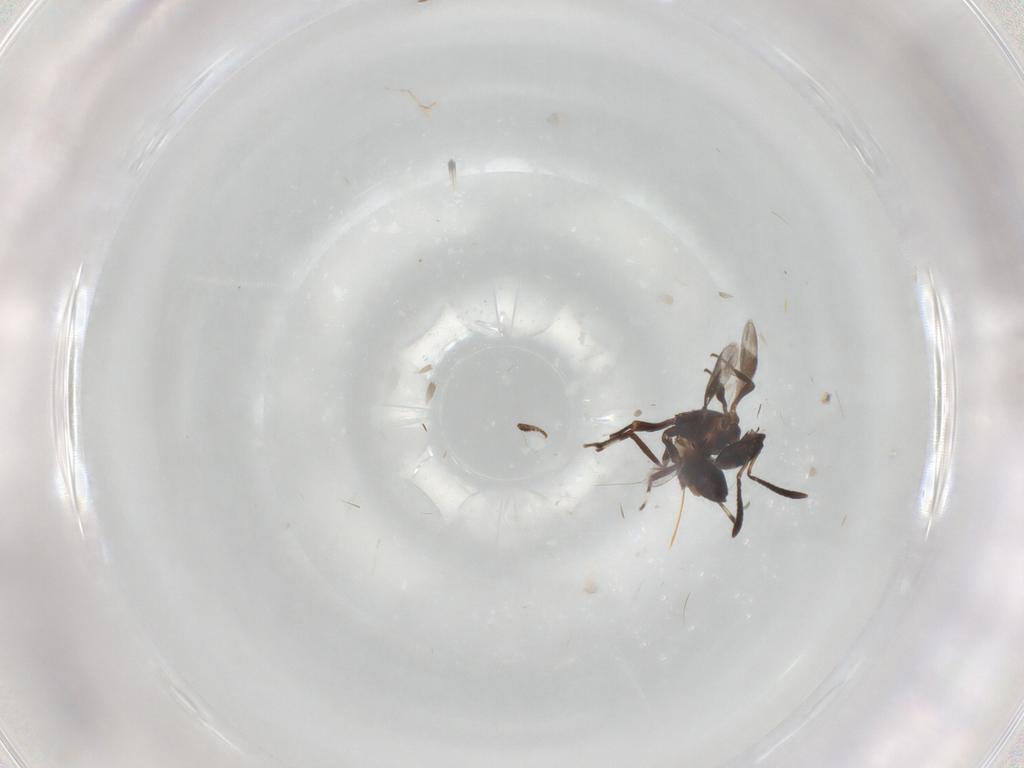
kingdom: Animalia
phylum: Arthropoda
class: Insecta
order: Hymenoptera
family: Eupelmidae
